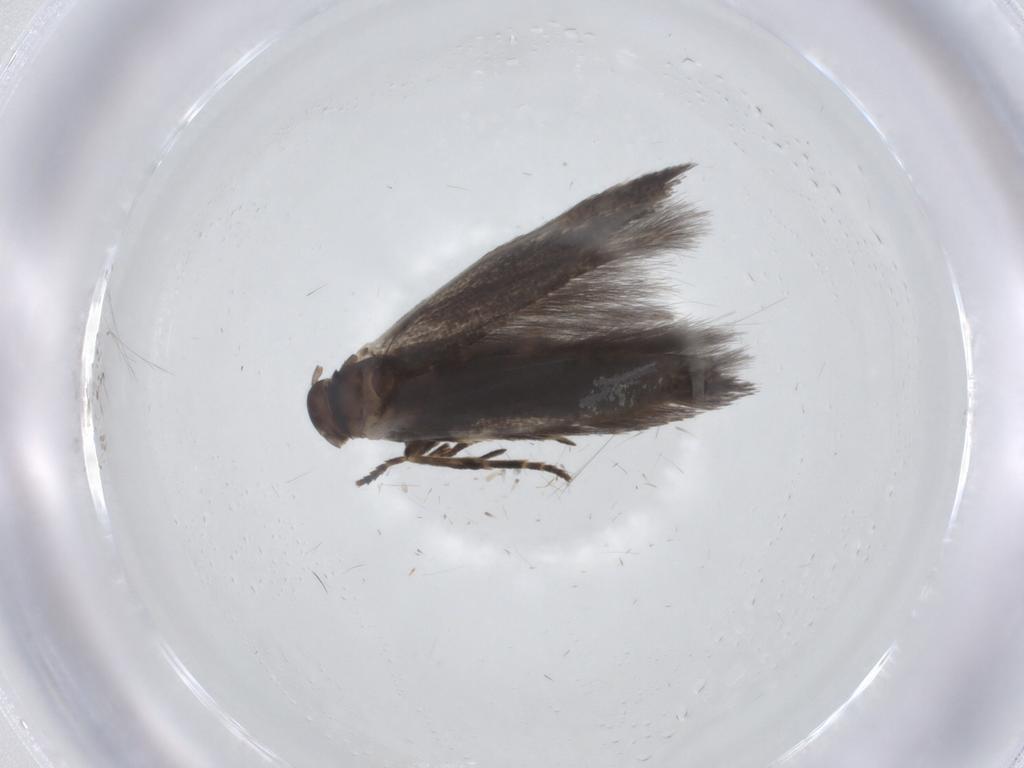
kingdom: Animalia
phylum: Arthropoda
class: Insecta
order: Lepidoptera
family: Elachistidae
